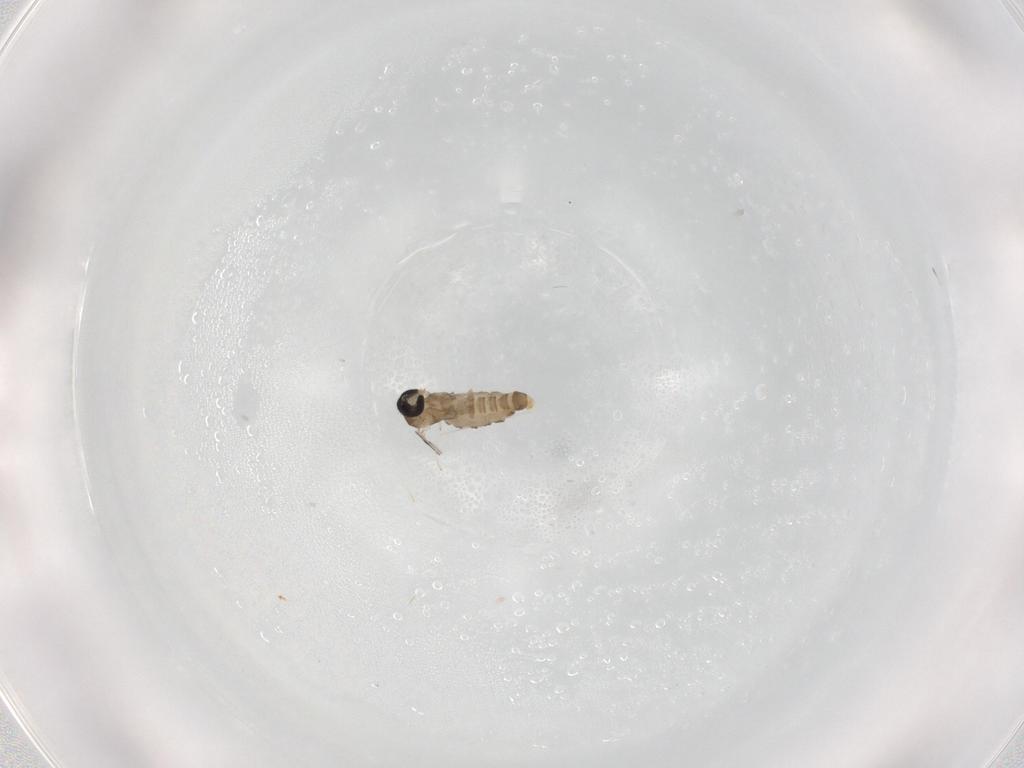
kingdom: Animalia
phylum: Arthropoda
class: Insecta
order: Diptera
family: Cecidomyiidae
